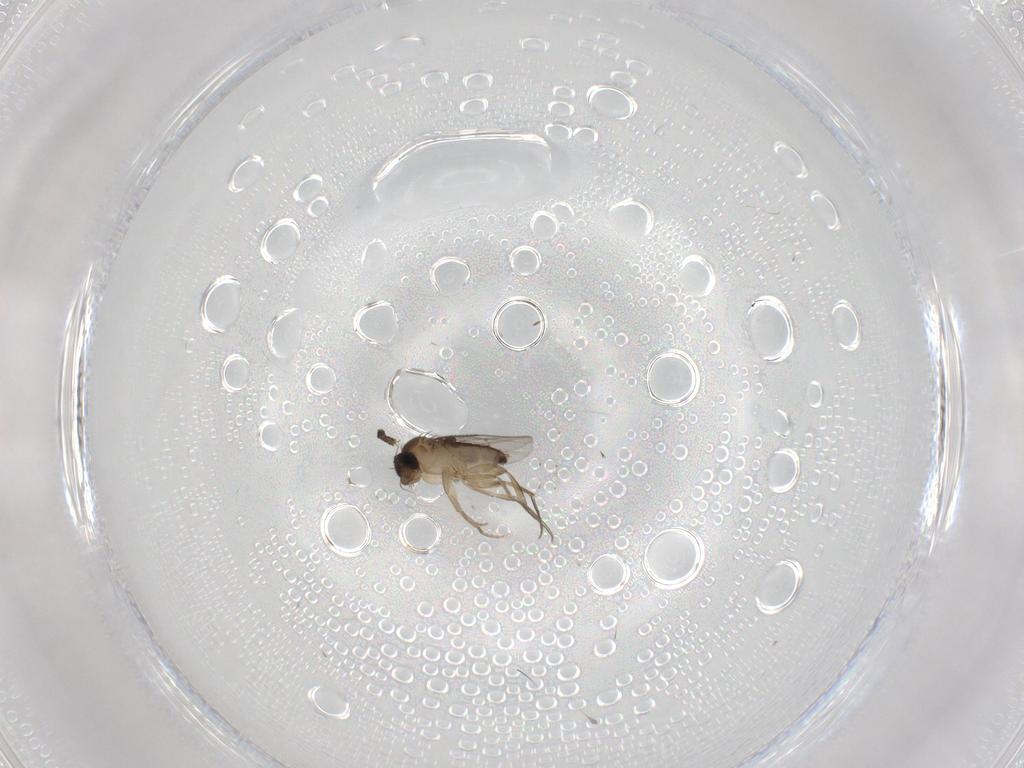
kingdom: Animalia
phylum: Arthropoda
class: Insecta
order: Diptera
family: Phoridae
